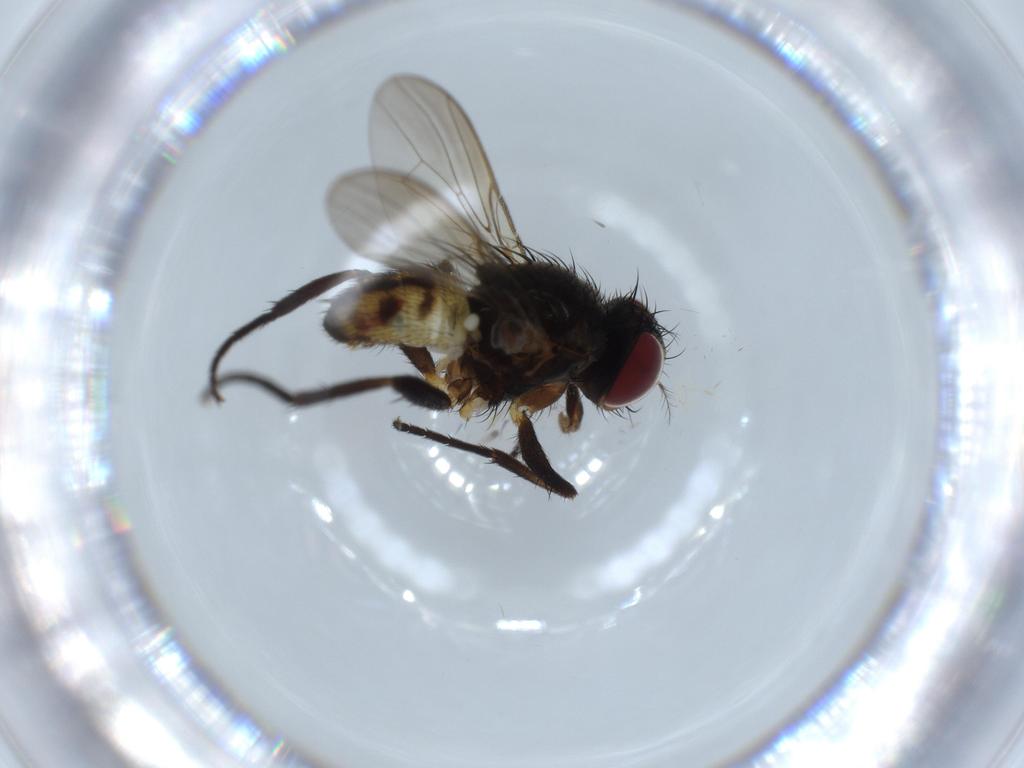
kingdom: Animalia
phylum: Arthropoda
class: Insecta
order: Diptera
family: Anthomyiidae
